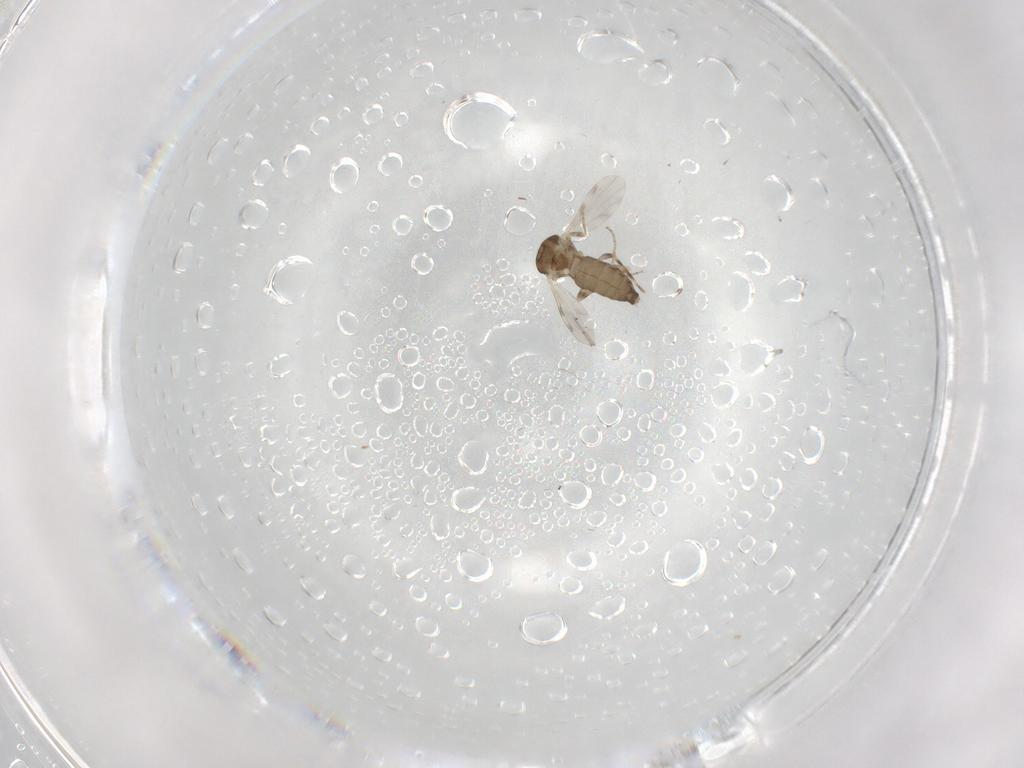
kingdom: Animalia
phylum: Arthropoda
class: Insecta
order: Diptera
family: Ceratopogonidae
